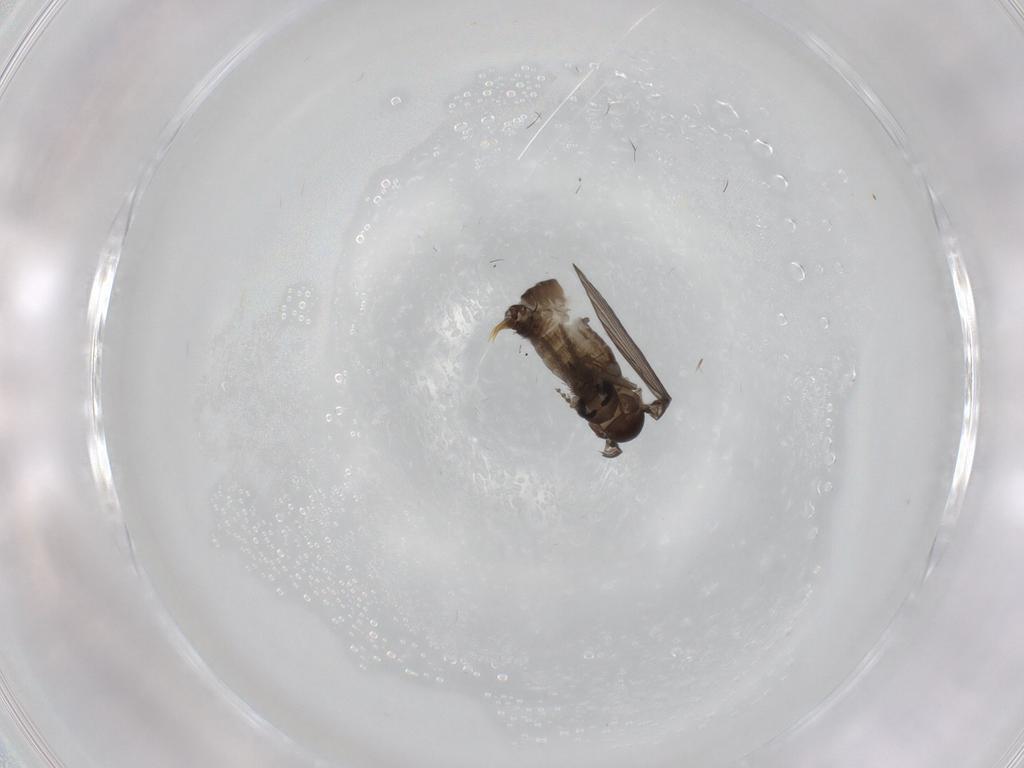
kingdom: Animalia
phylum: Arthropoda
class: Insecta
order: Diptera
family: Psychodidae
